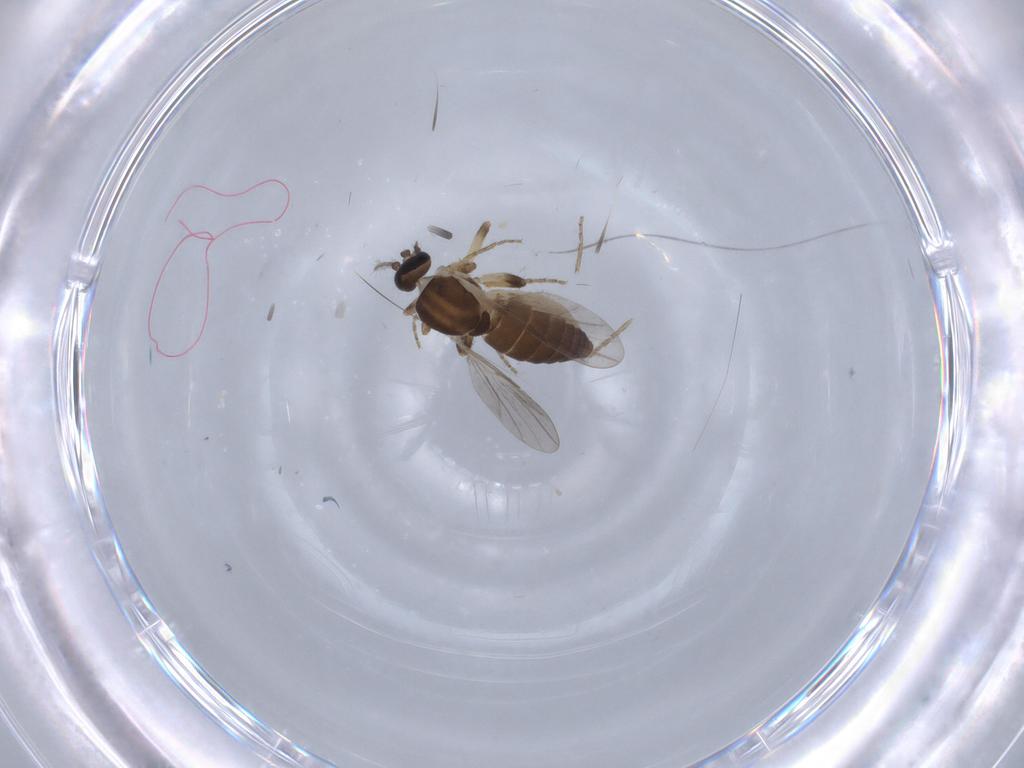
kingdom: Animalia
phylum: Arthropoda
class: Insecta
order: Diptera
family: Ceratopogonidae
